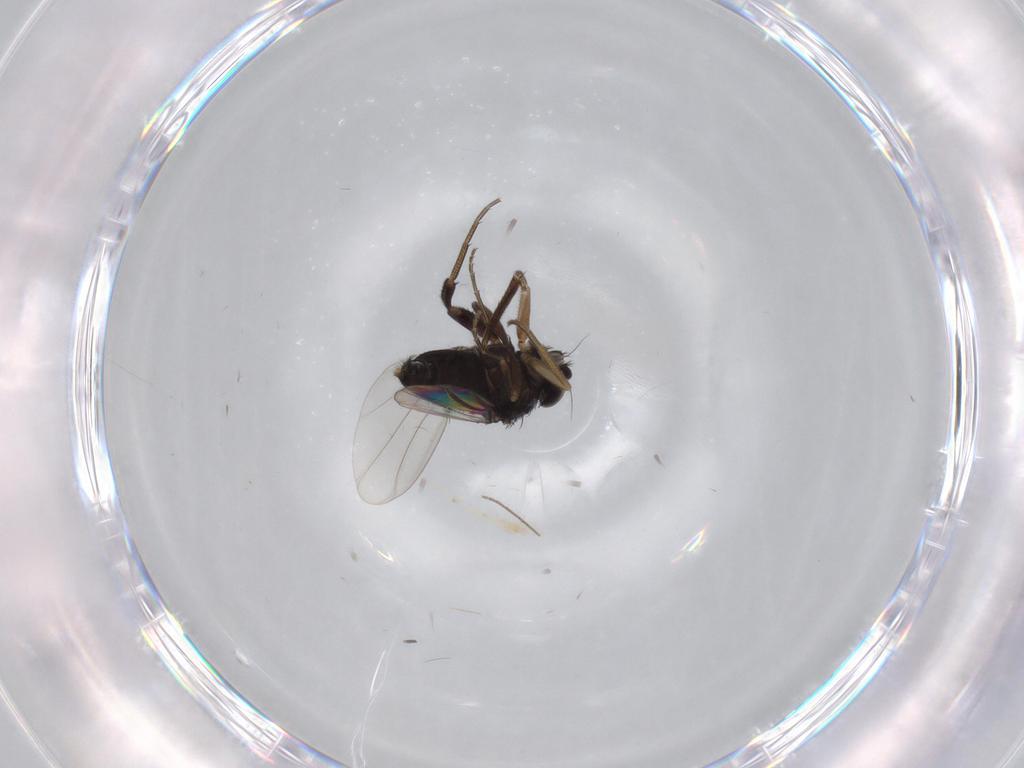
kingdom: Animalia
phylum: Arthropoda
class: Insecta
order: Diptera
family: Phoridae
